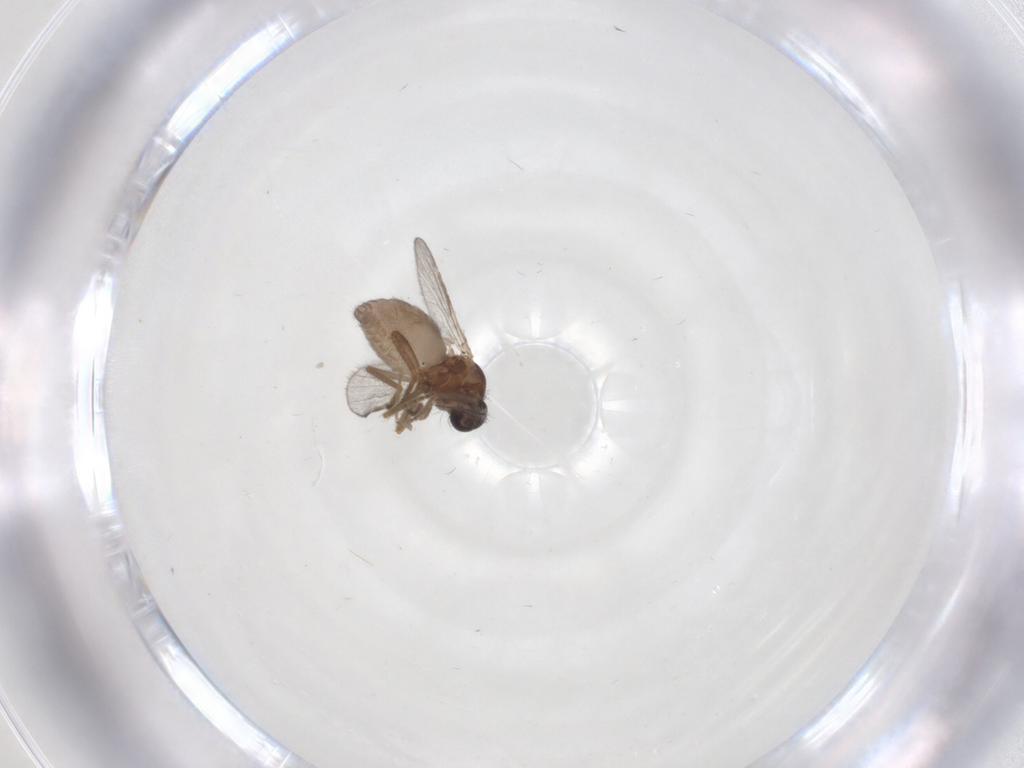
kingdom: Animalia
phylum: Arthropoda
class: Insecta
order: Diptera
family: Ceratopogonidae
